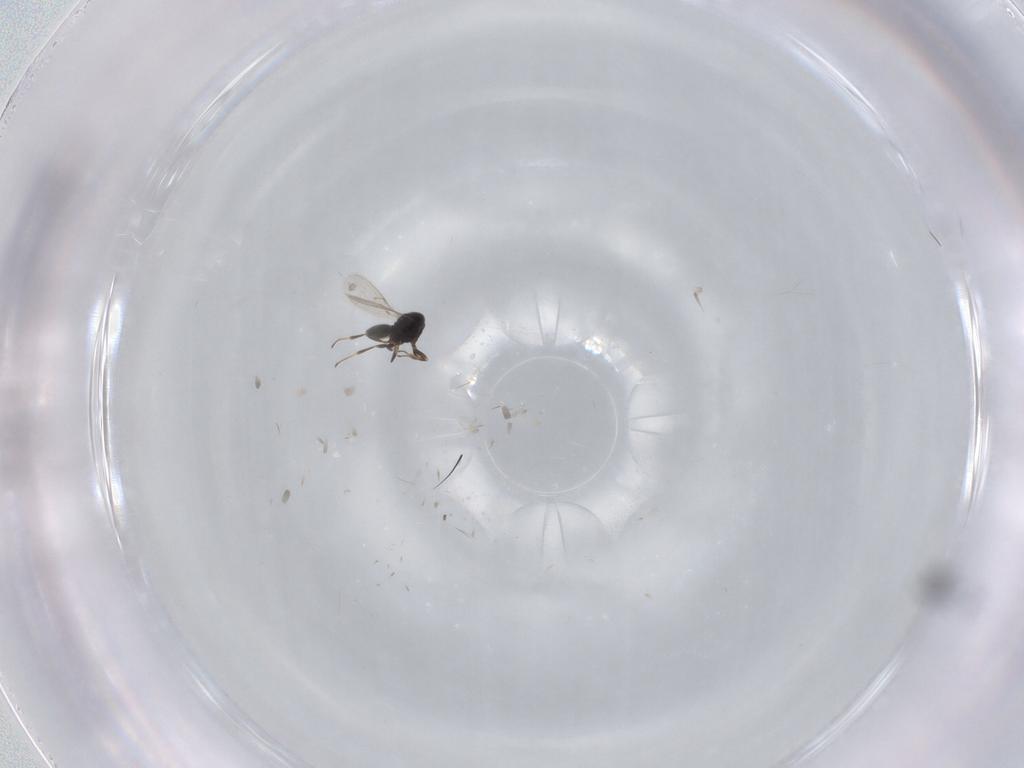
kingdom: Animalia
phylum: Arthropoda
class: Insecta
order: Hymenoptera
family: Scelionidae
